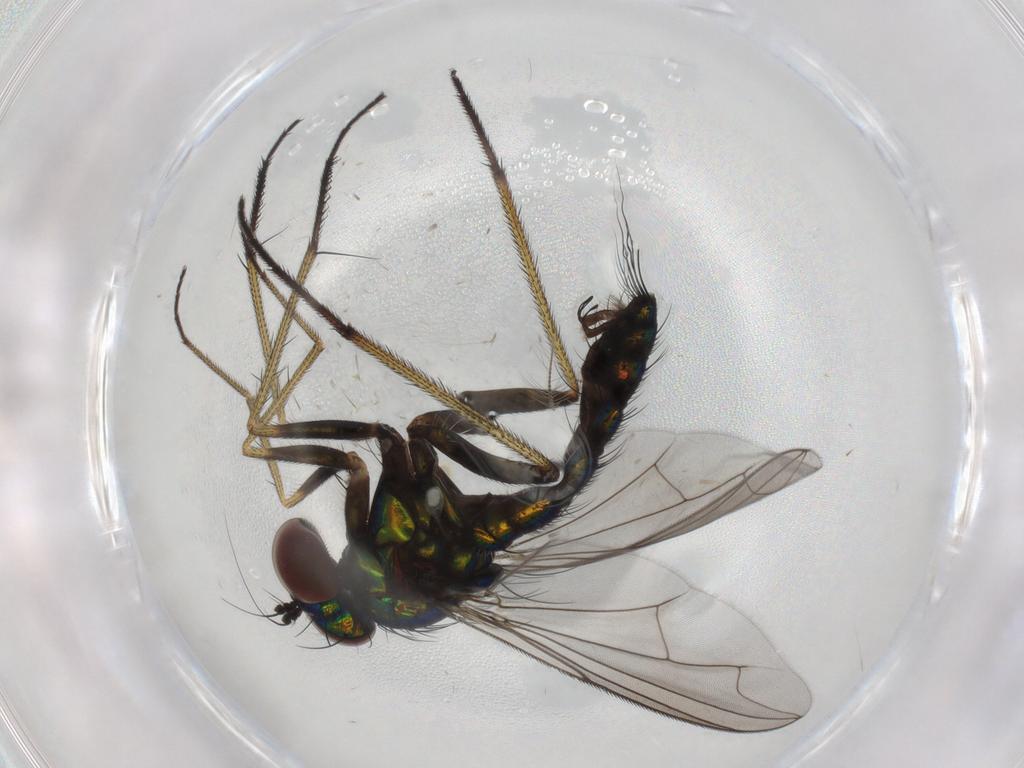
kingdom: Animalia
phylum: Arthropoda
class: Insecta
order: Diptera
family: Dolichopodidae
